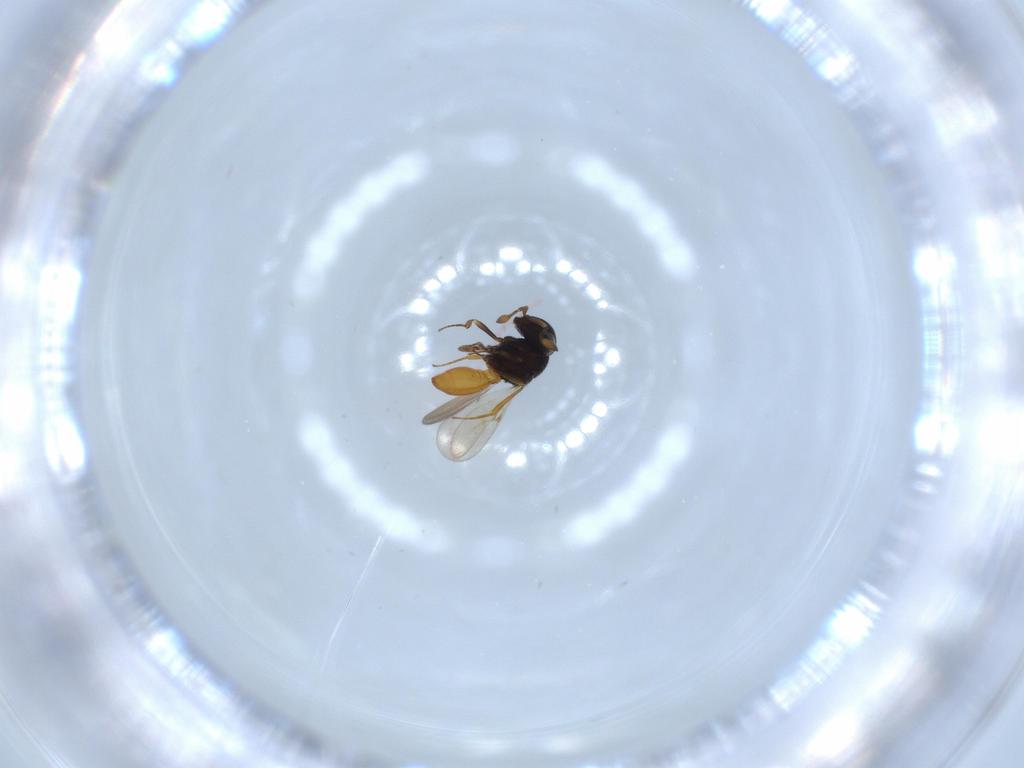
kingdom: Animalia
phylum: Arthropoda
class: Insecta
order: Hymenoptera
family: Scelionidae
